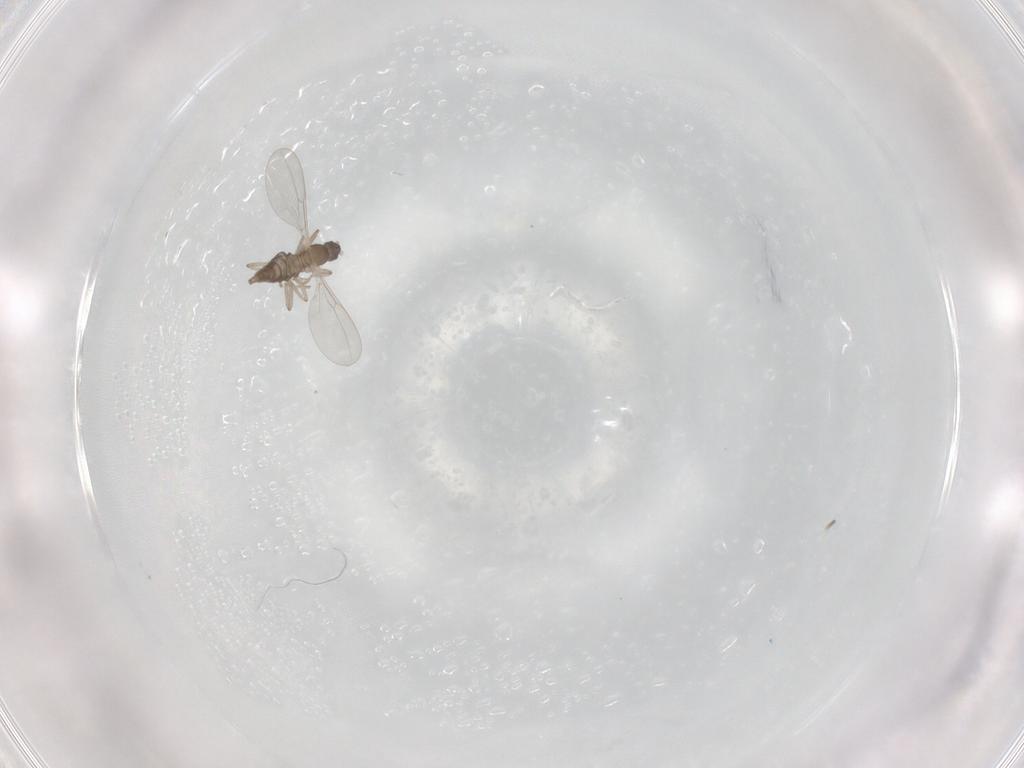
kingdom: Animalia
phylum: Arthropoda
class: Insecta
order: Diptera
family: Cecidomyiidae
